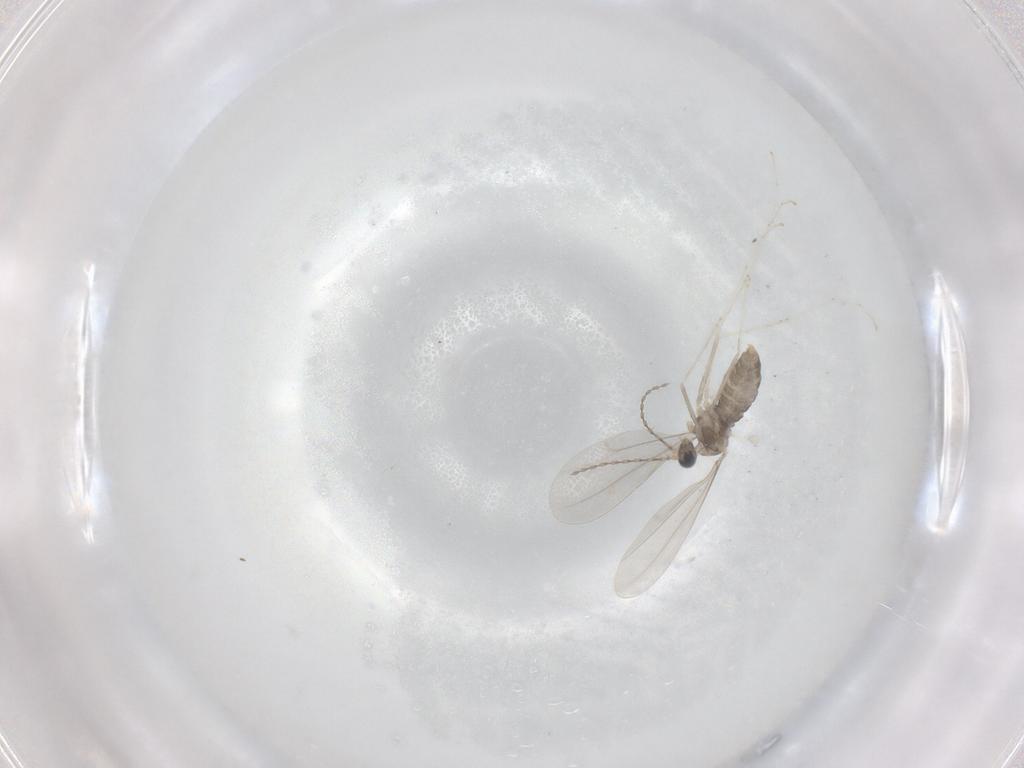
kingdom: Animalia
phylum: Arthropoda
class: Insecta
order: Diptera
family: Cecidomyiidae
